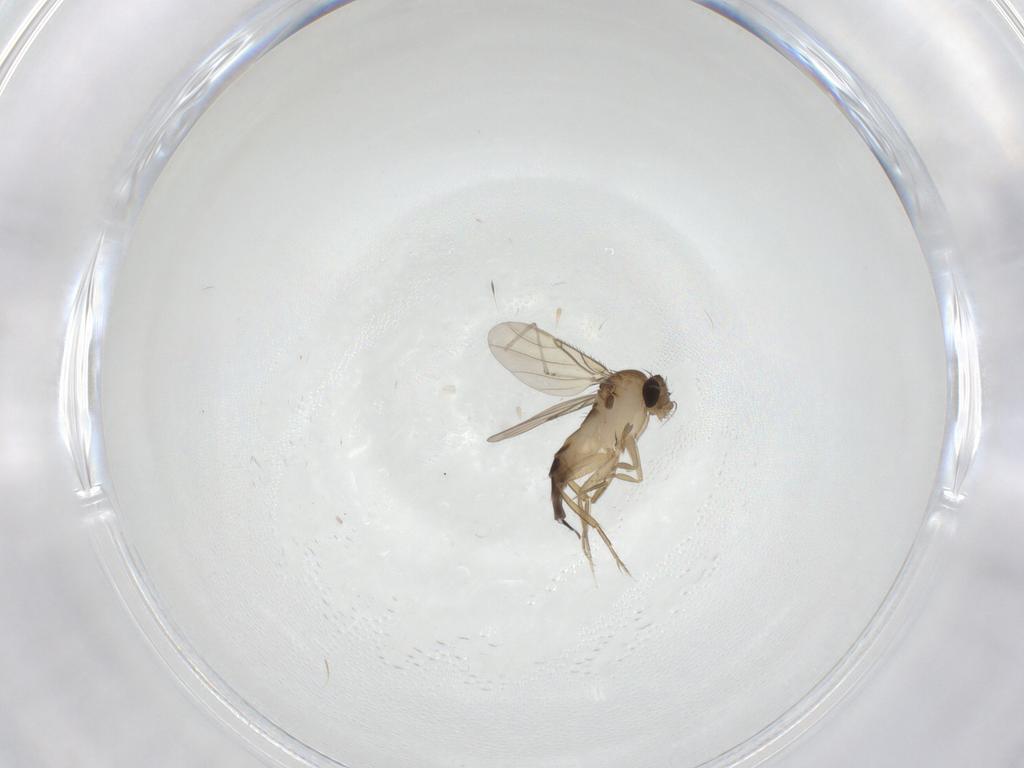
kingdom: Animalia
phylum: Arthropoda
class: Insecta
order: Diptera
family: Phoridae
